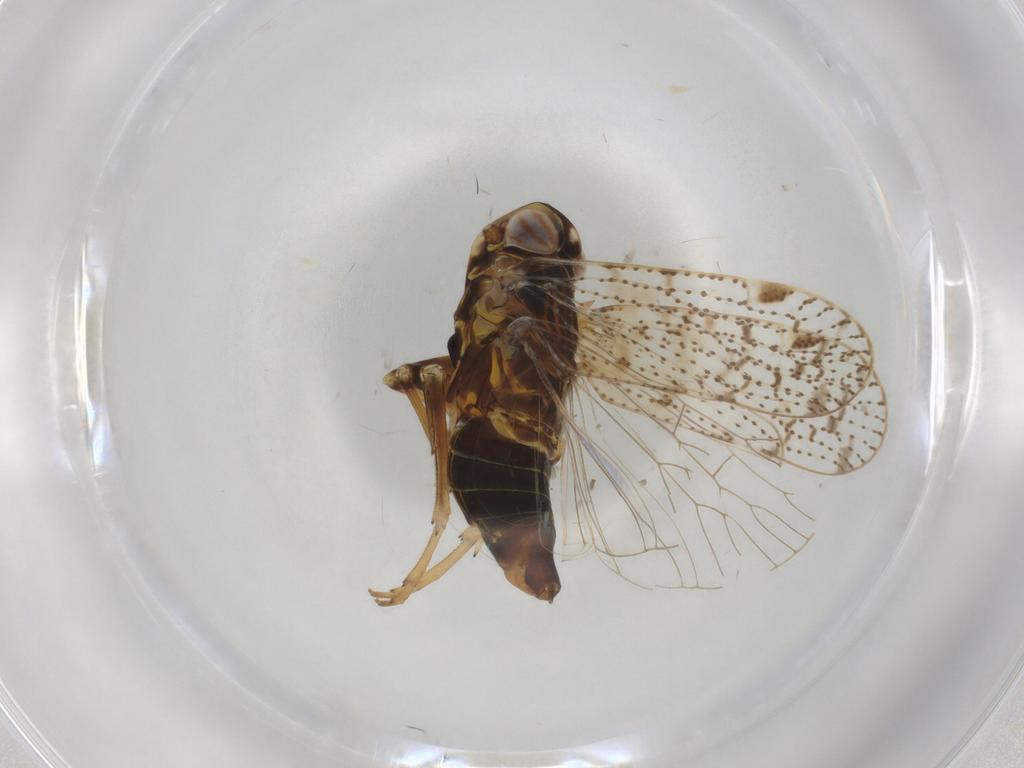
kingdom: Animalia
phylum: Arthropoda
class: Insecta
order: Hemiptera
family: Cixiidae
